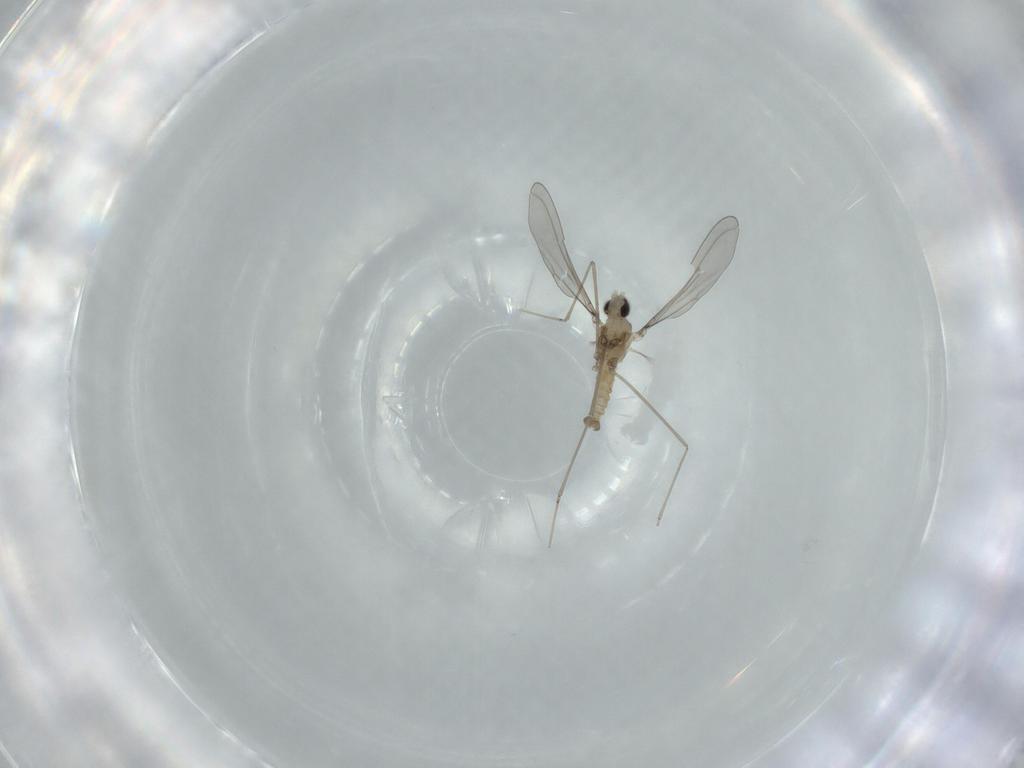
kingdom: Animalia
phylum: Arthropoda
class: Insecta
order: Diptera
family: Cecidomyiidae
